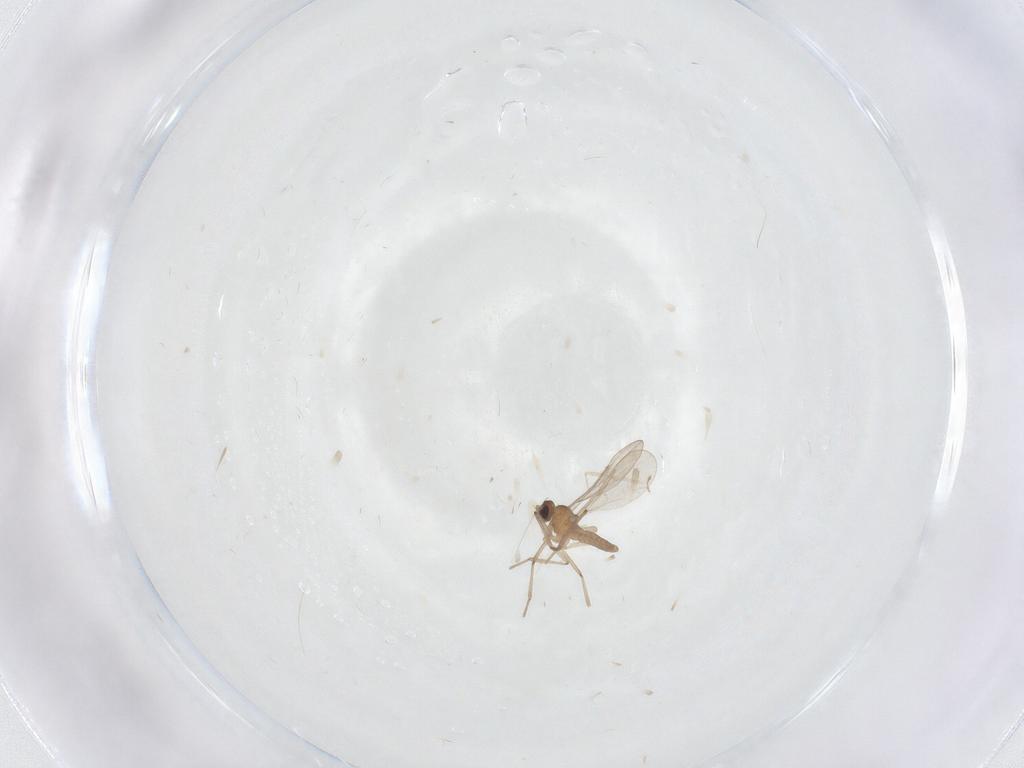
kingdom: Animalia
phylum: Arthropoda
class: Insecta
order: Diptera
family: Cecidomyiidae
